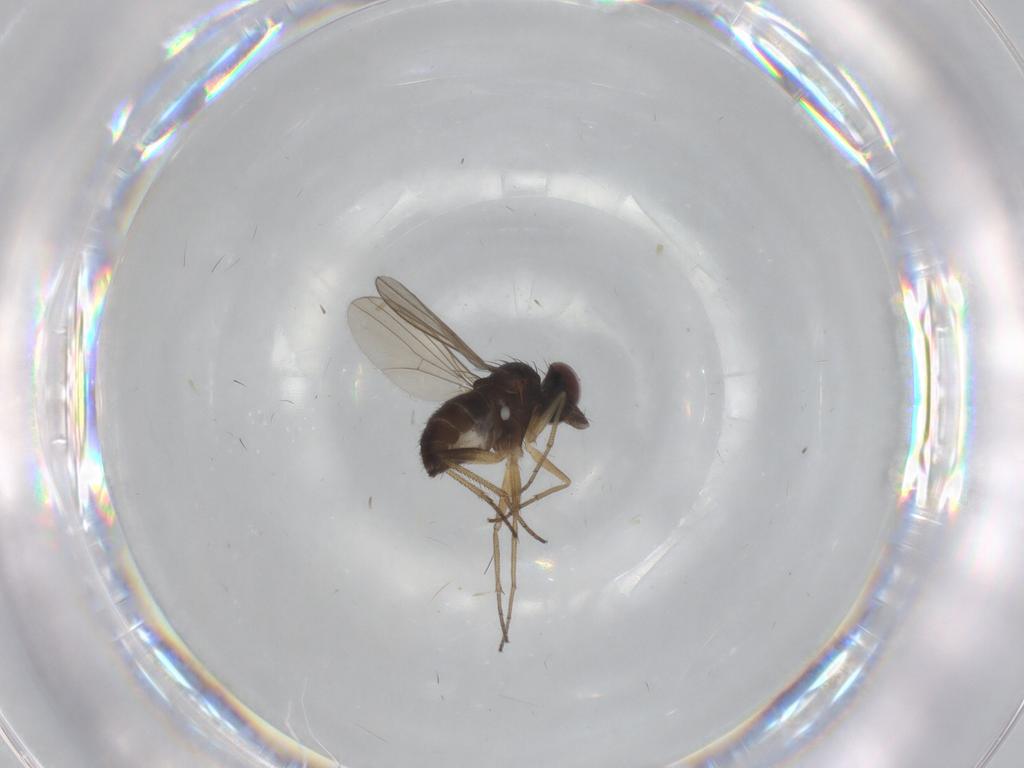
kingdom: Animalia
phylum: Arthropoda
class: Insecta
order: Diptera
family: Dolichopodidae
